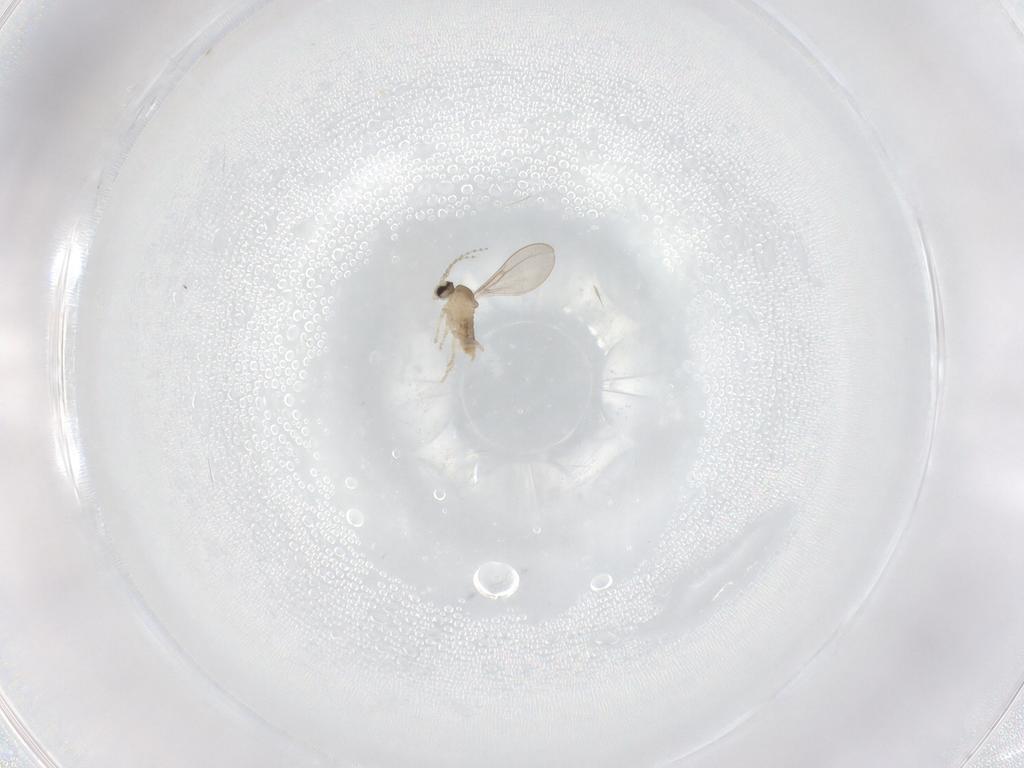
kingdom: Animalia
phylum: Arthropoda
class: Insecta
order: Diptera
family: Cecidomyiidae
